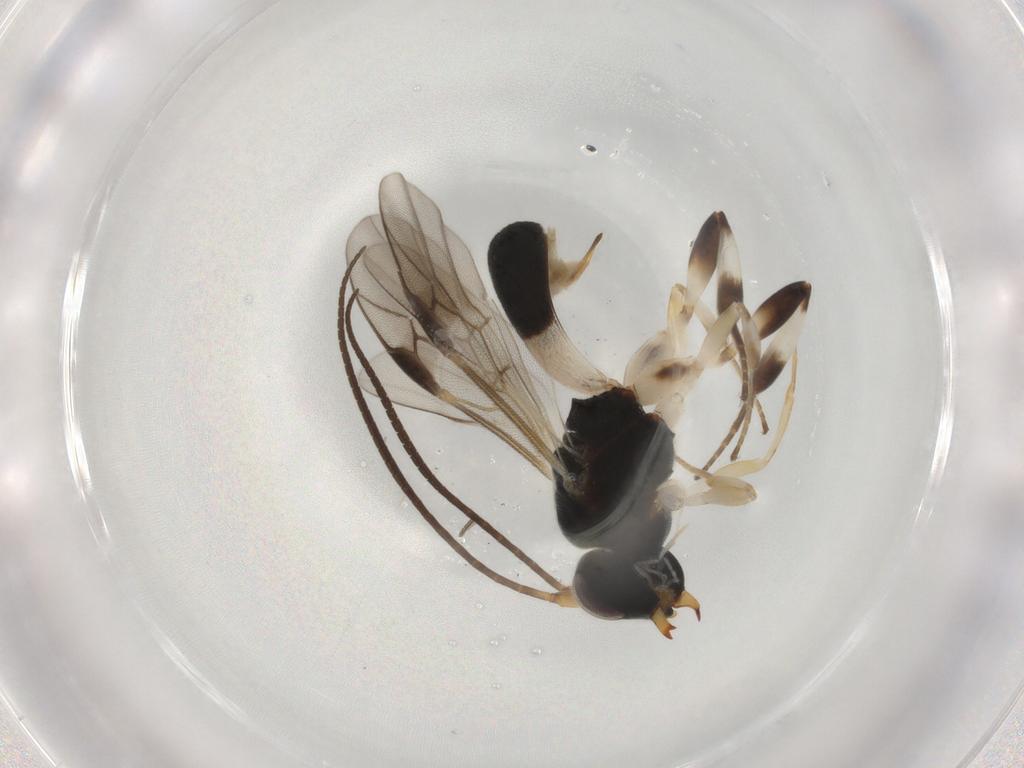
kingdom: Animalia
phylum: Arthropoda
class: Insecta
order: Hymenoptera
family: Braconidae
